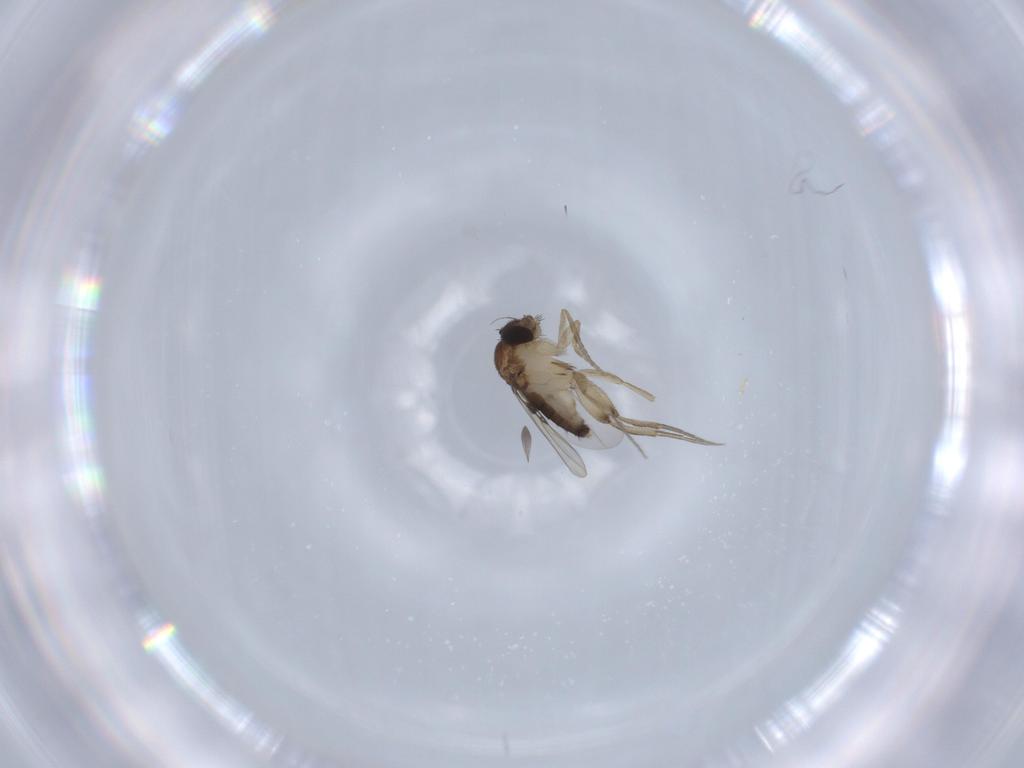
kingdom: Animalia
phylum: Arthropoda
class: Insecta
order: Diptera
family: Phoridae
